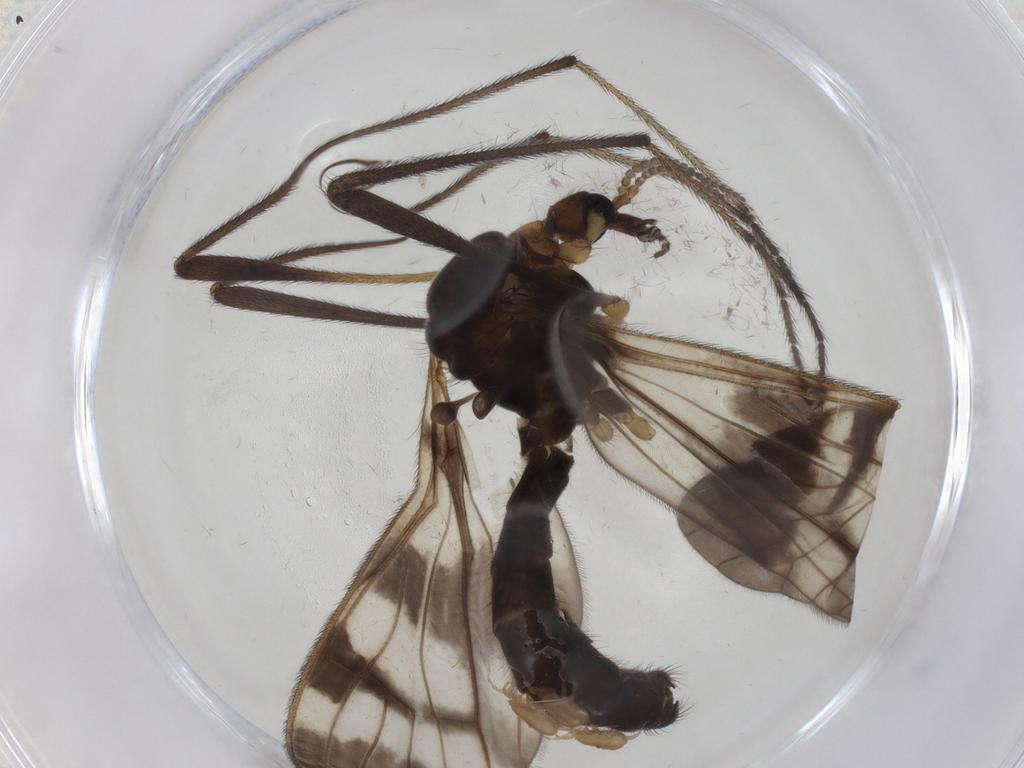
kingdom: Animalia
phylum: Arthropoda
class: Insecta
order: Diptera
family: Limoniidae
